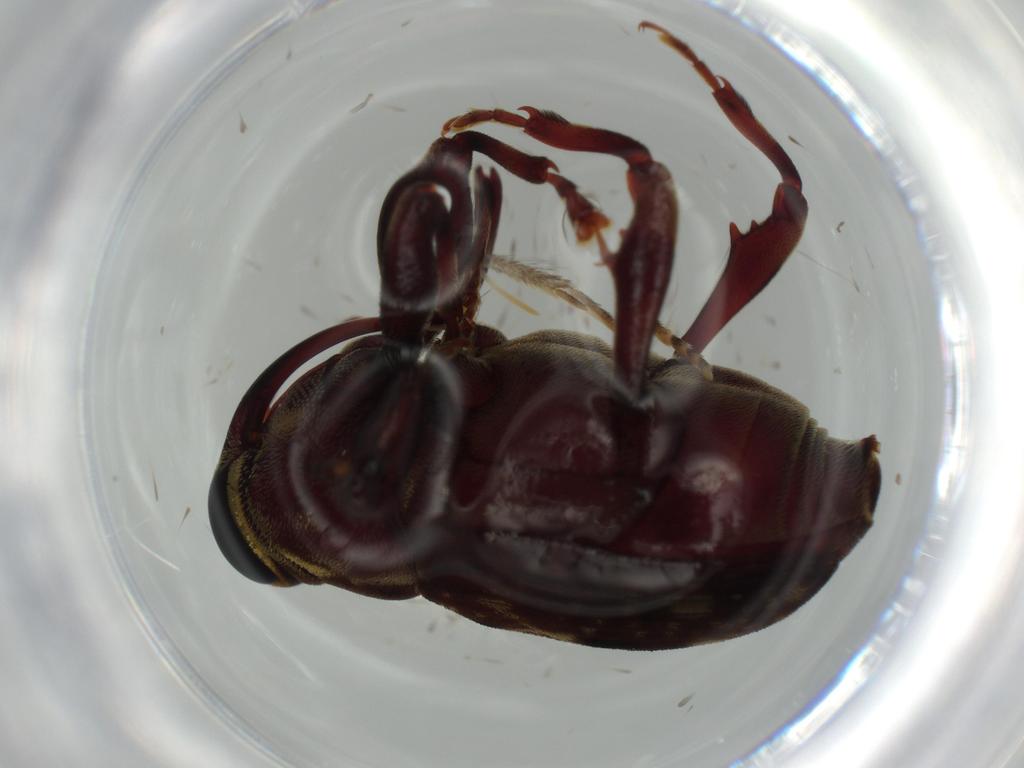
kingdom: Animalia
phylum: Arthropoda
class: Insecta
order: Coleoptera
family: Curculionidae
